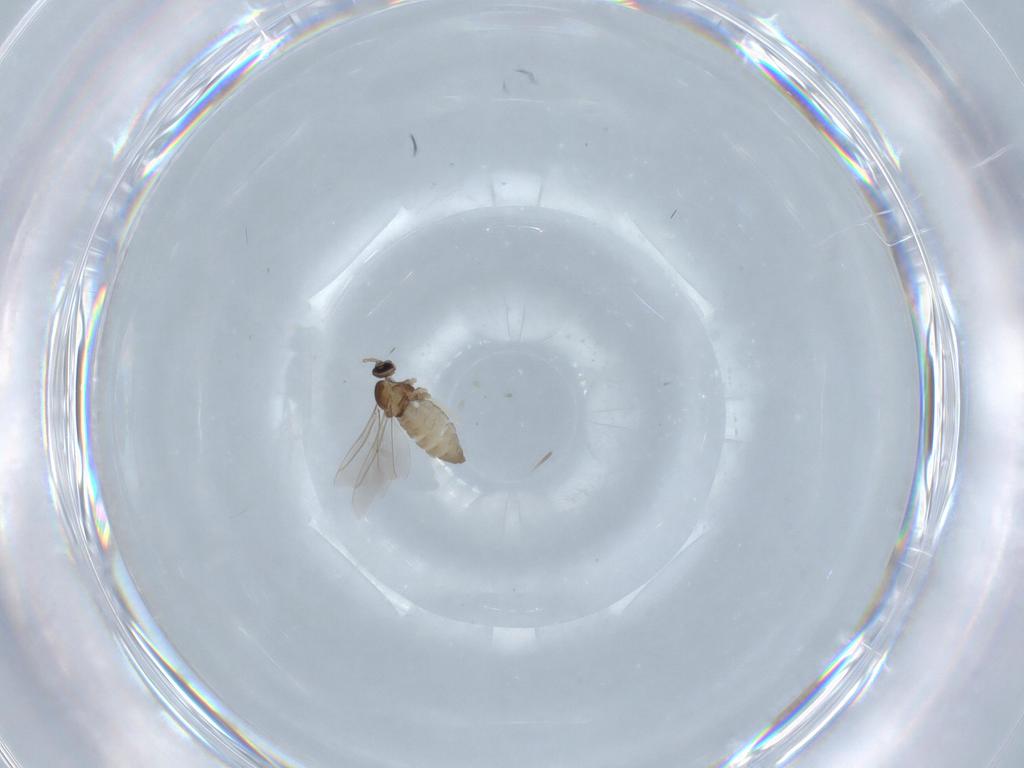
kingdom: Animalia
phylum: Arthropoda
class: Insecta
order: Diptera
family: Cecidomyiidae
